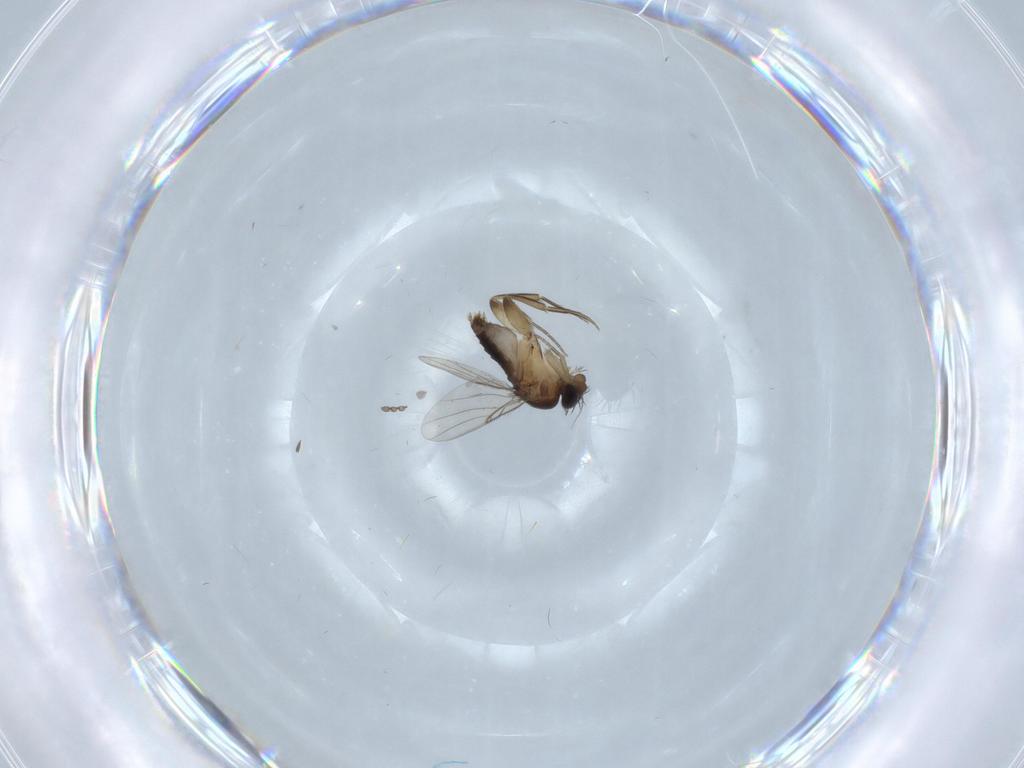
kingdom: Animalia
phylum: Arthropoda
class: Insecta
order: Diptera
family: Cecidomyiidae
